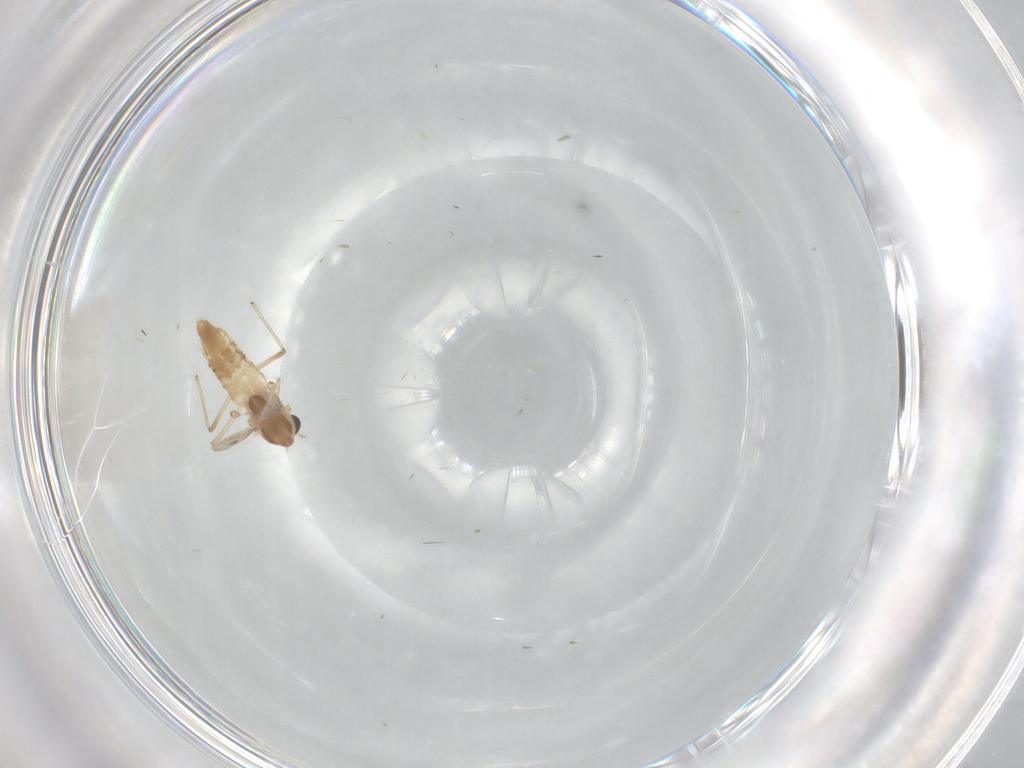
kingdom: Animalia
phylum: Arthropoda
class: Insecta
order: Diptera
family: Chironomidae
